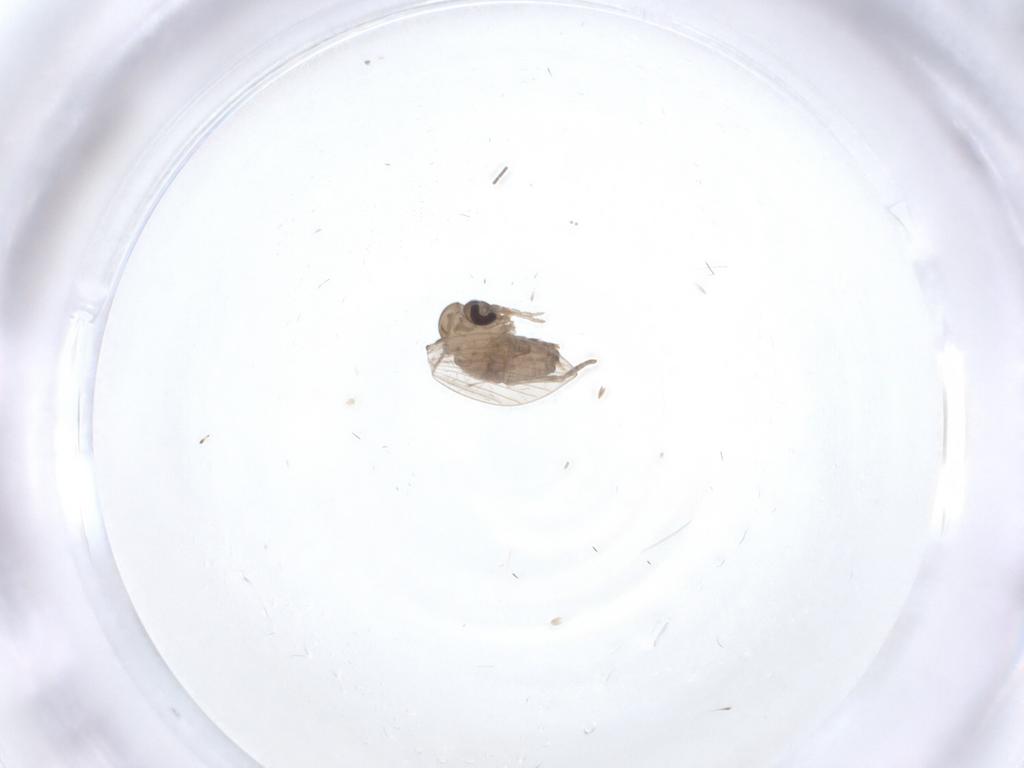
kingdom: Animalia
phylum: Arthropoda
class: Insecta
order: Diptera
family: Psychodidae
